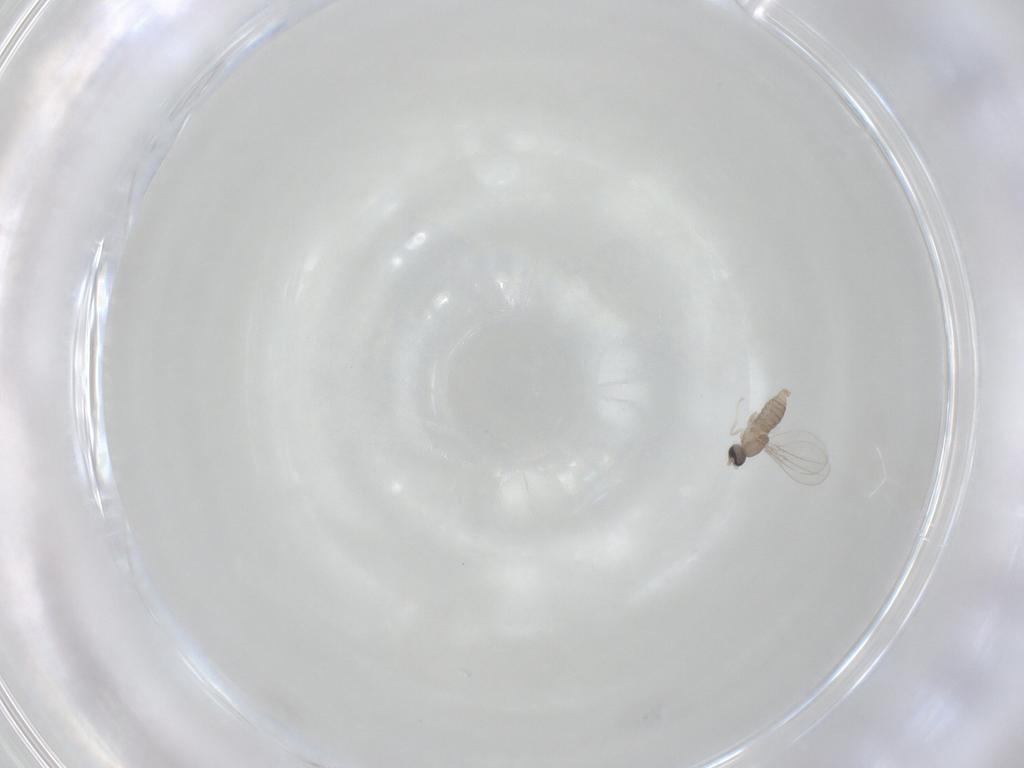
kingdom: Animalia
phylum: Arthropoda
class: Insecta
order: Diptera
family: Cecidomyiidae
